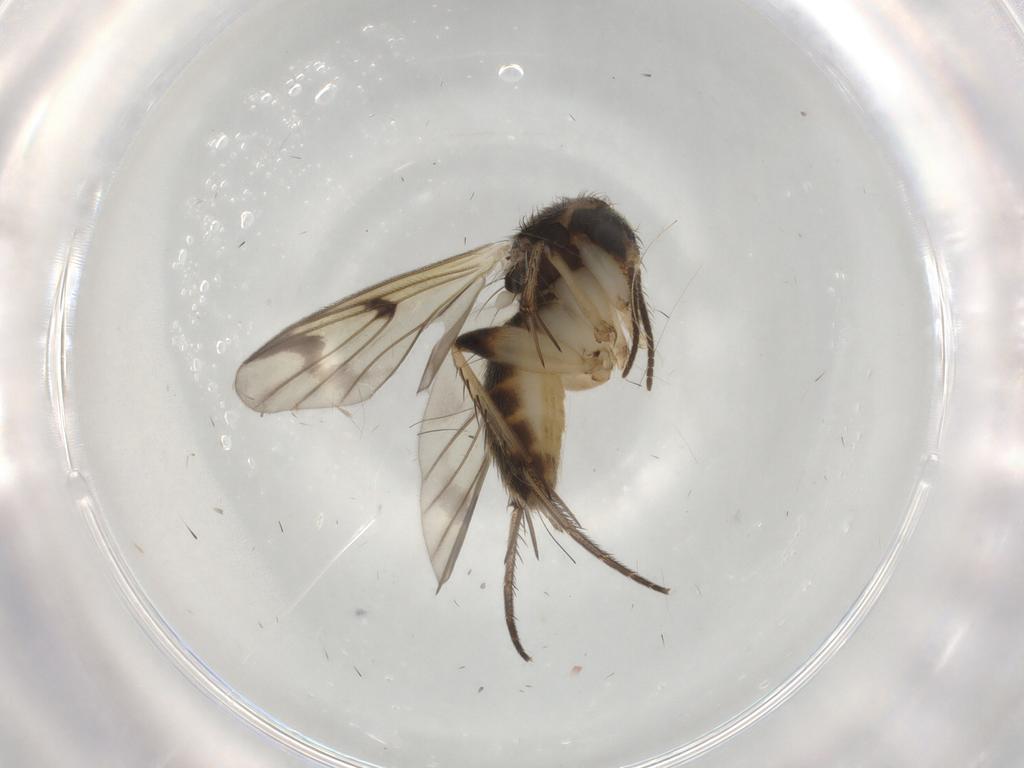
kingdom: Animalia
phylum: Arthropoda
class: Insecta
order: Diptera
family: Mycetophilidae
